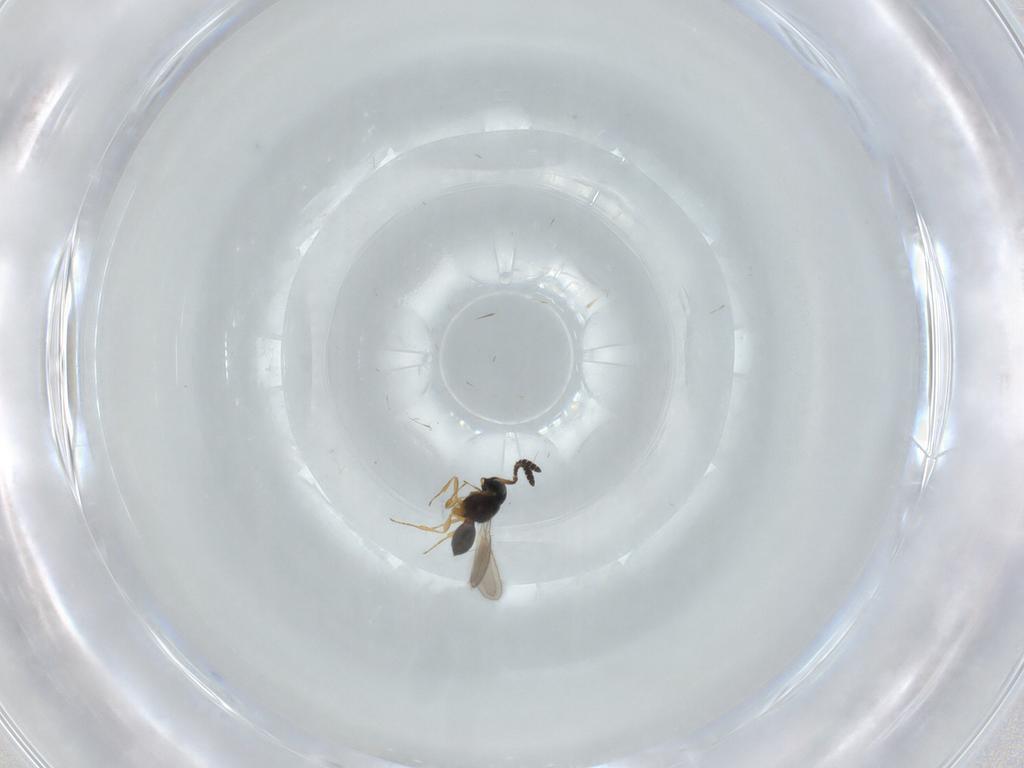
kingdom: Animalia
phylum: Arthropoda
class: Insecta
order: Hymenoptera
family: Scelionidae
